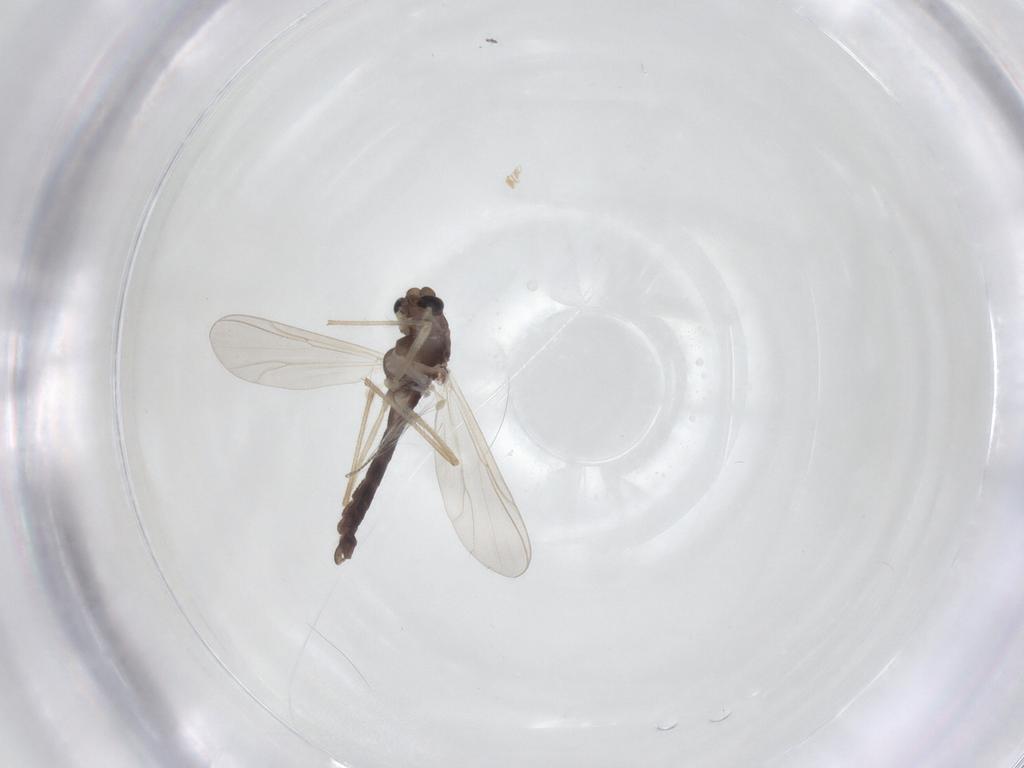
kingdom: Animalia
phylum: Arthropoda
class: Insecta
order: Diptera
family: Chironomidae
